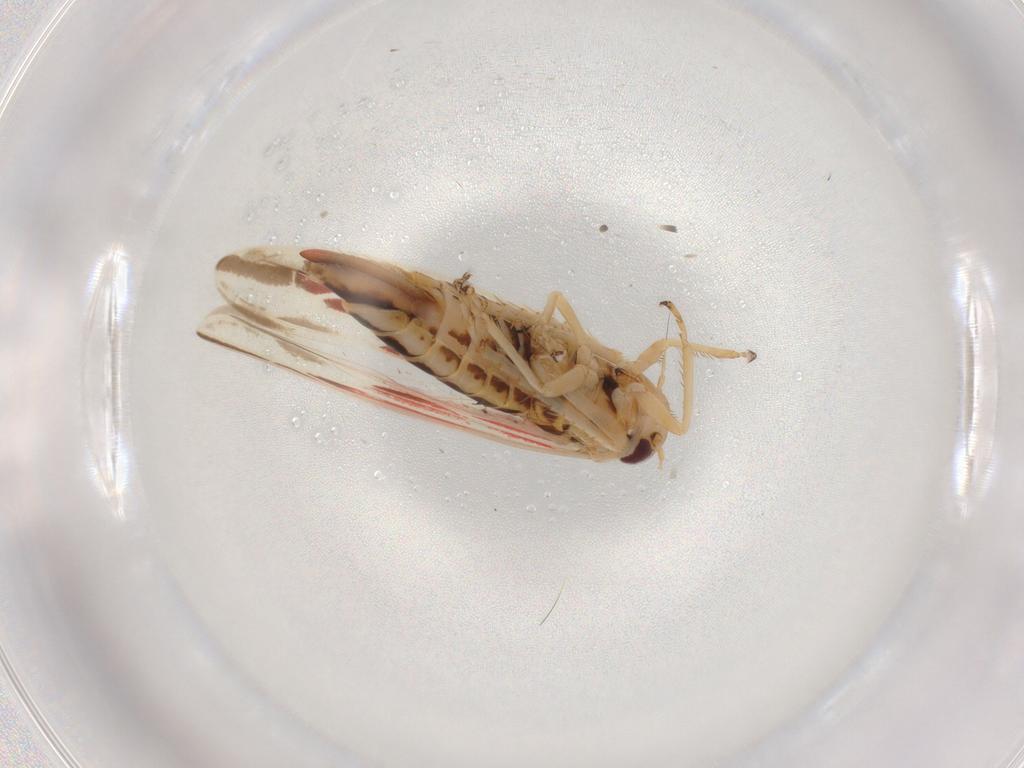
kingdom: Animalia
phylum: Arthropoda
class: Insecta
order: Hemiptera
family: Cicadellidae
